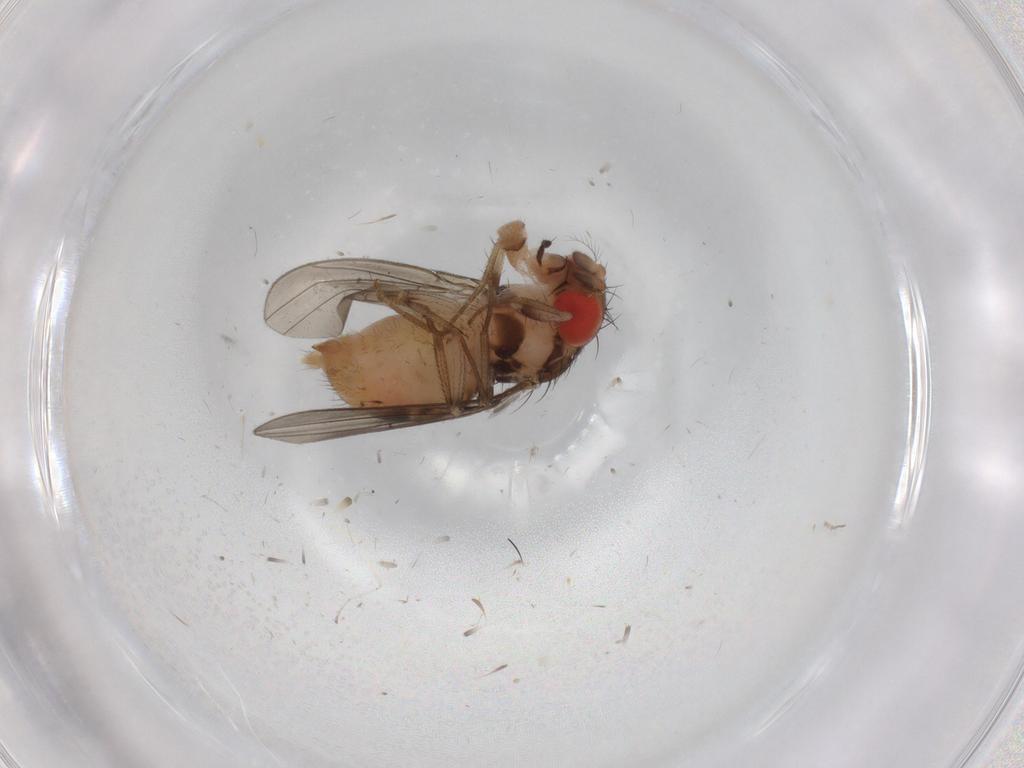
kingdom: Animalia
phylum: Arthropoda
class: Insecta
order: Diptera
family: Drosophilidae
